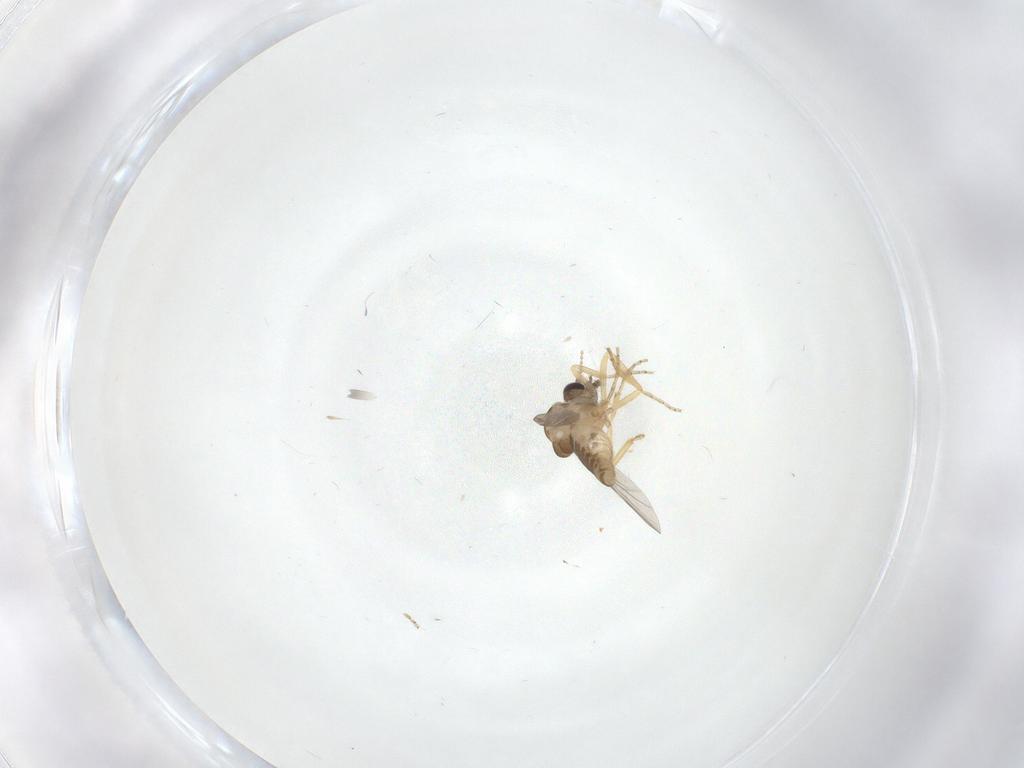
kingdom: Animalia
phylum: Arthropoda
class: Insecta
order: Diptera
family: Ceratopogonidae
